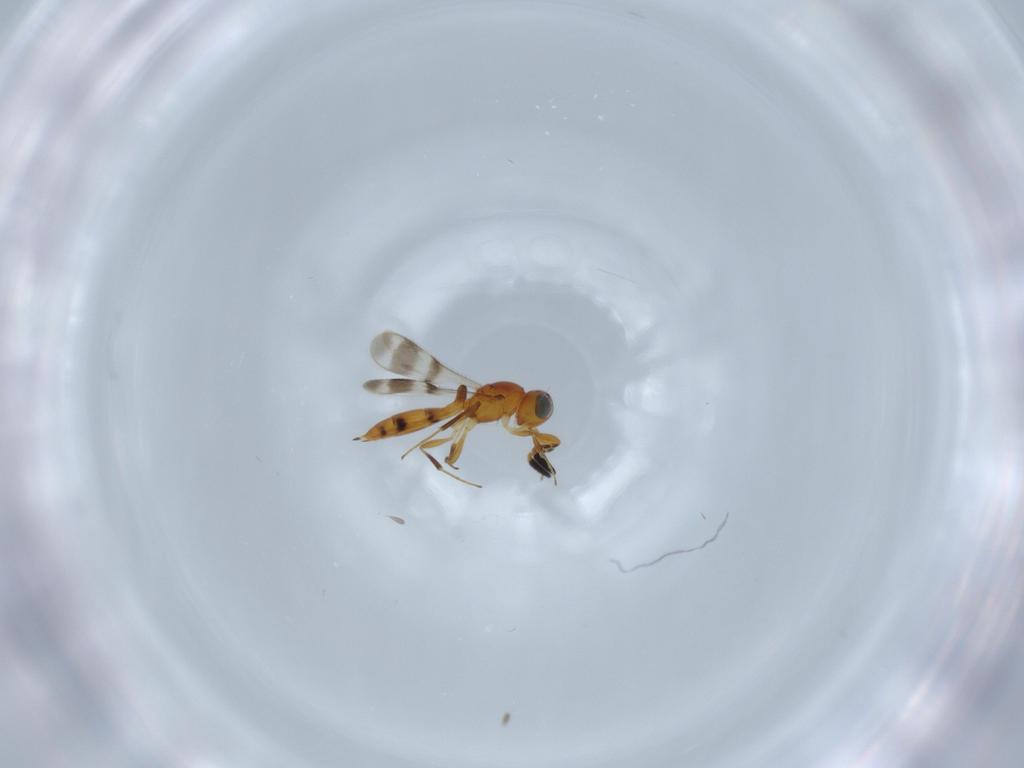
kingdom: Animalia
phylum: Arthropoda
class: Insecta
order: Hymenoptera
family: Scelionidae
